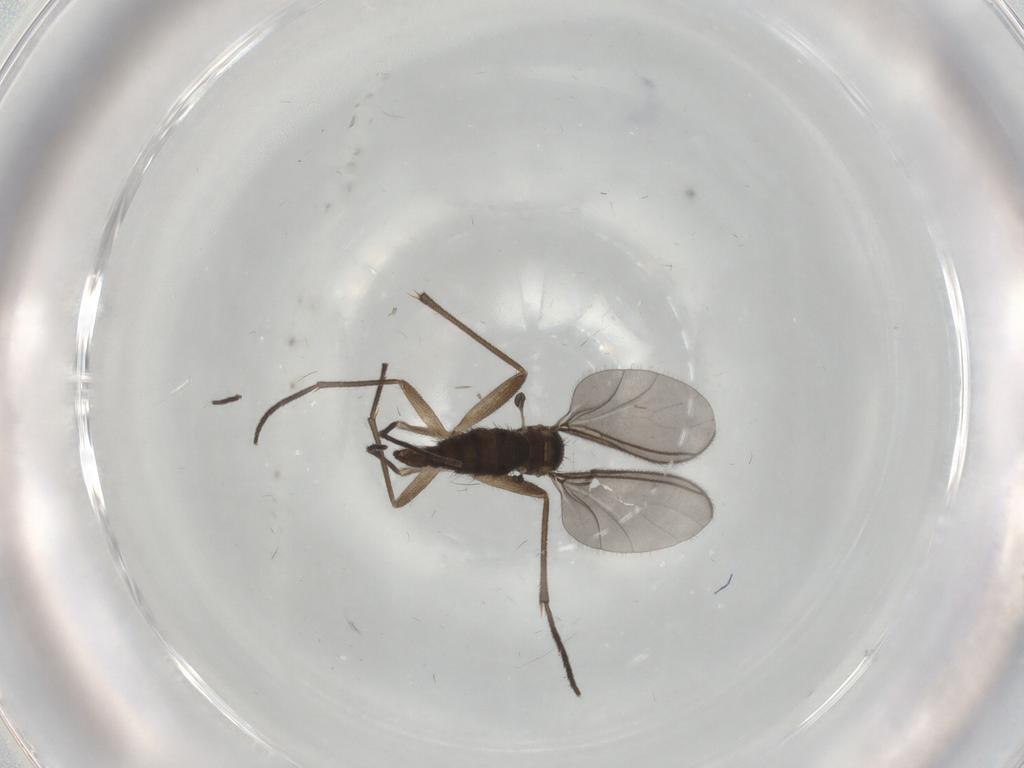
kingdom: Animalia
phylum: Arthropoda
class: Insecta
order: Diptera
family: Sciaridae
